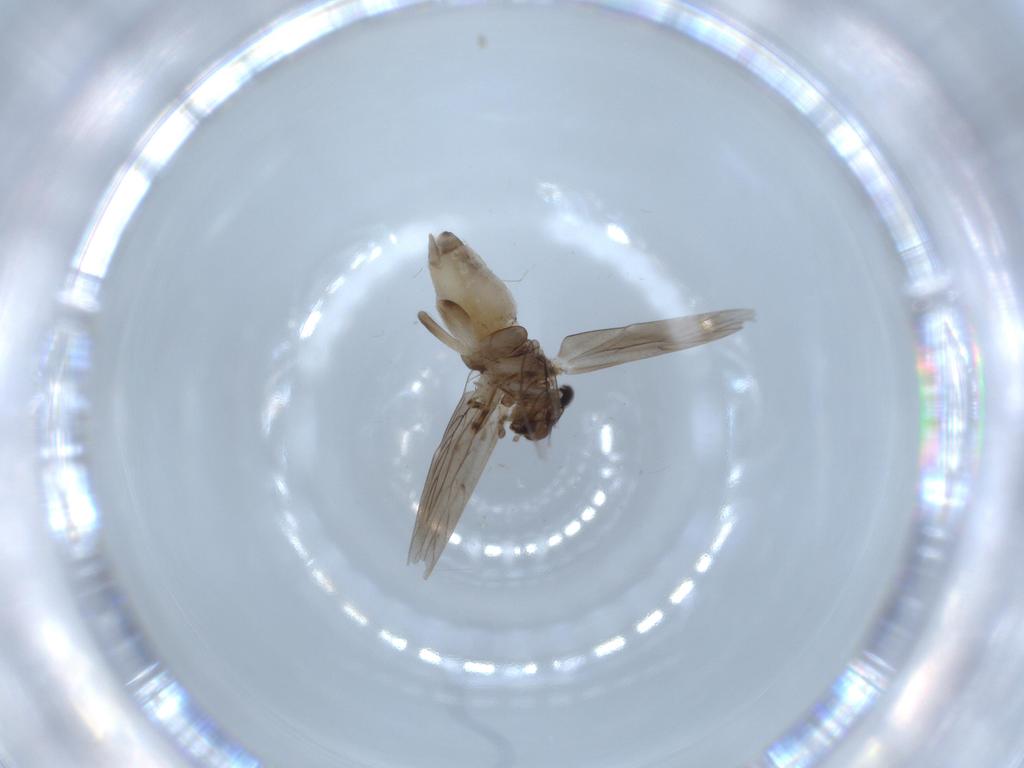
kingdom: Animalia
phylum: Arthropoda
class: Insecta
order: Psocodea
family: Lepidopsocidae
